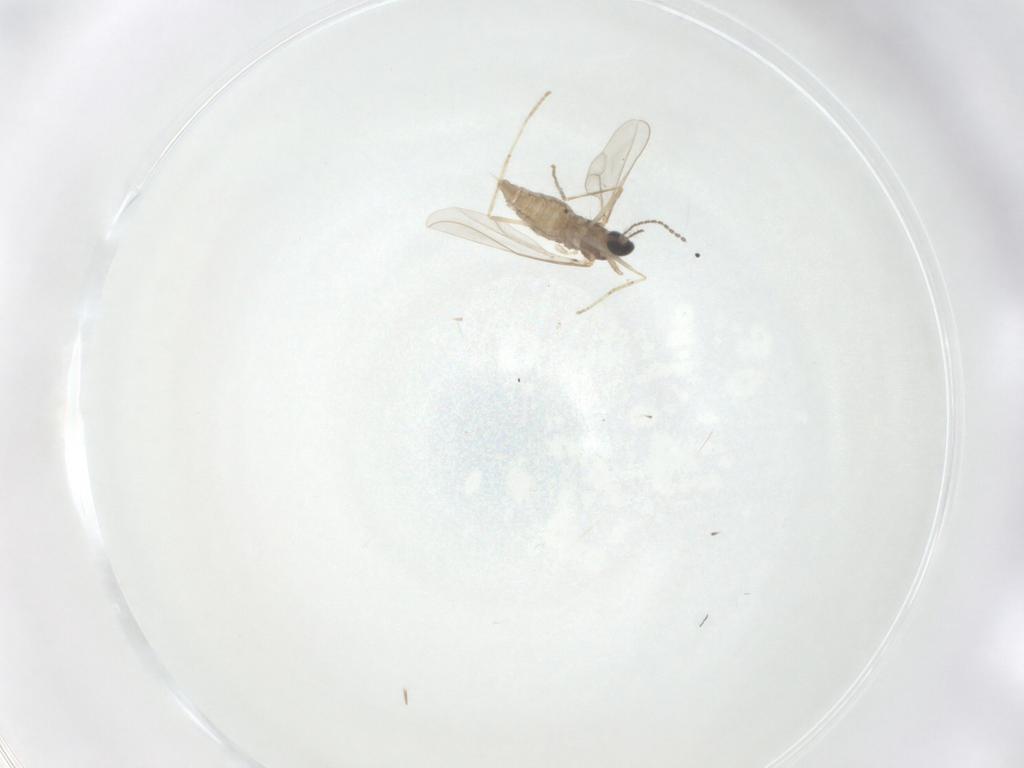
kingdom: Animalia
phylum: Arthropoda
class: Insecta
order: Diptera
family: Cecidomyiidae
